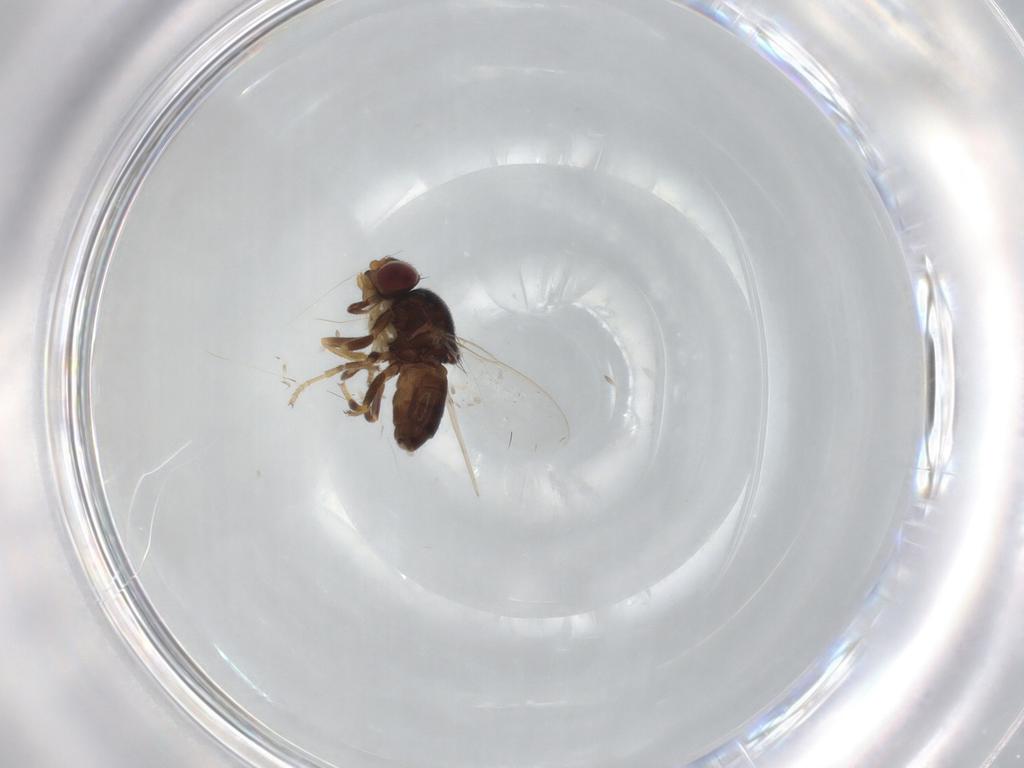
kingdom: Animalia
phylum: Arthropoda
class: Insecta
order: Diptera
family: Chloropidae
